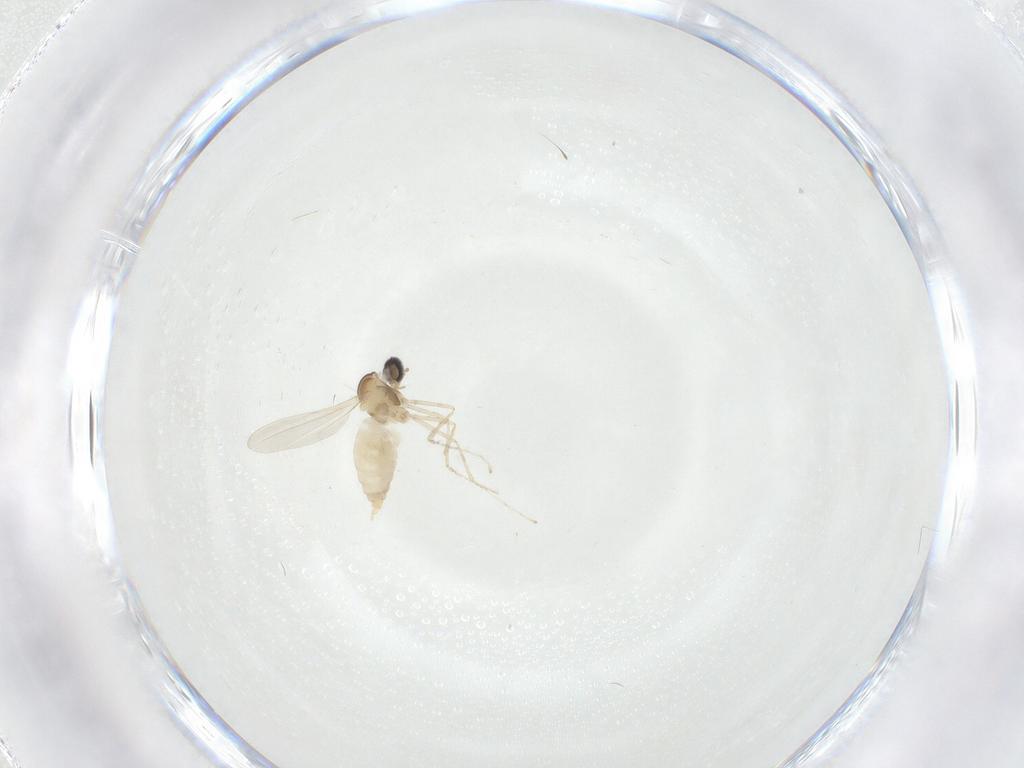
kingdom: Animalia
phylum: Arthropoda
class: Insecta
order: Diptera
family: Cecidomyiidae
